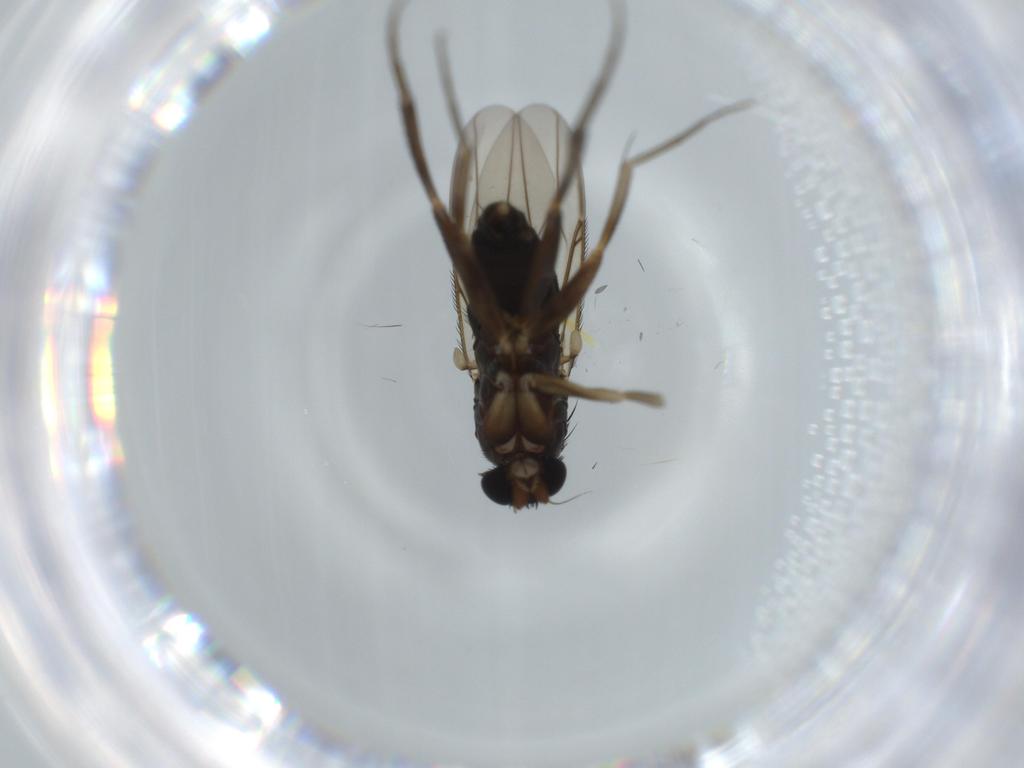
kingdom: Animalia
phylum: Arthropoda
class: Insecta
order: Diptera
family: Phoridae
